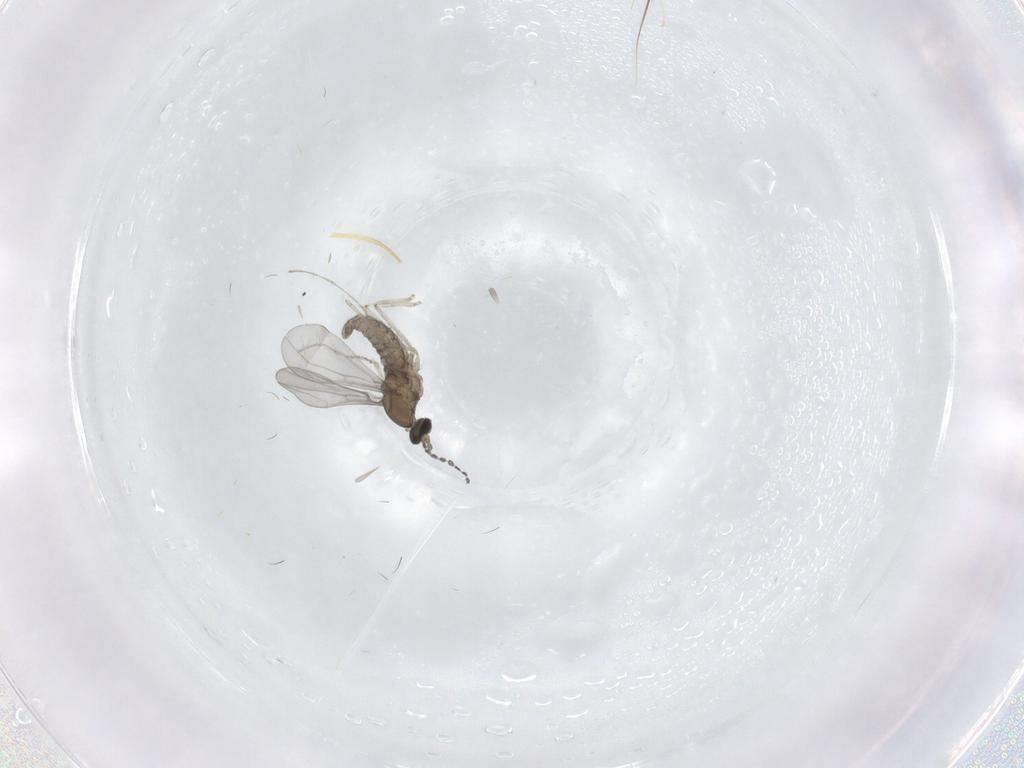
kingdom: Animalia
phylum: Arthropoda
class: Insecta
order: Diptera
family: Cecidomyiidae
